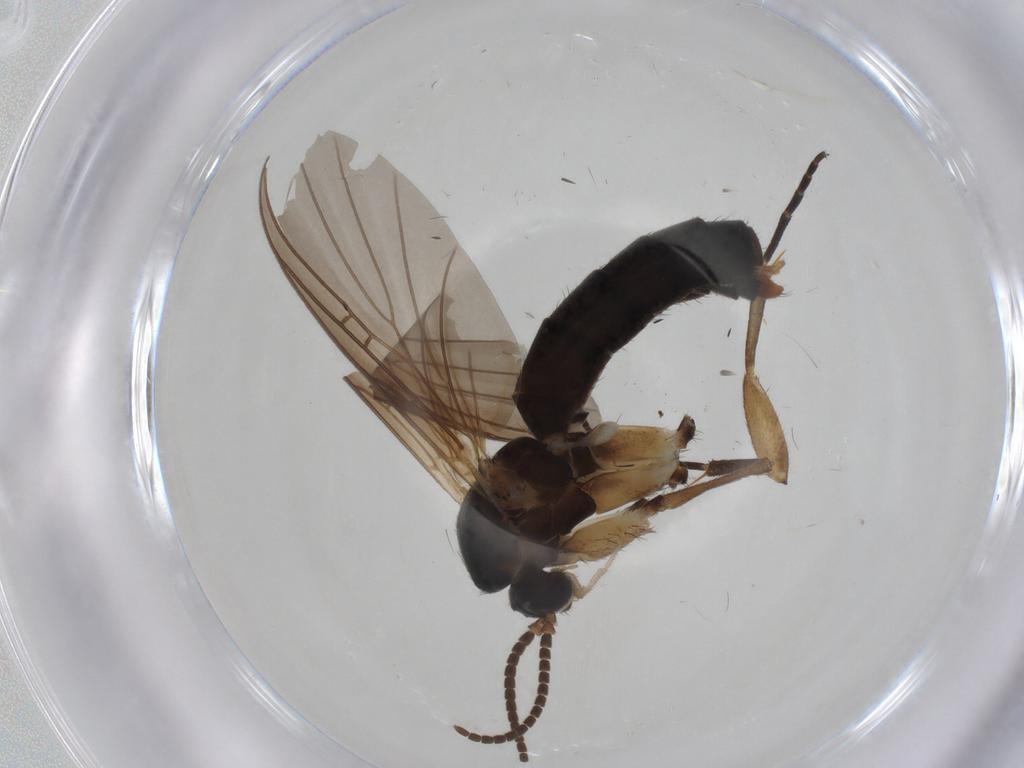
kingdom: Animalia
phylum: Arthropoda
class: Insecta
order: Diptera
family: Mycetophilidae
